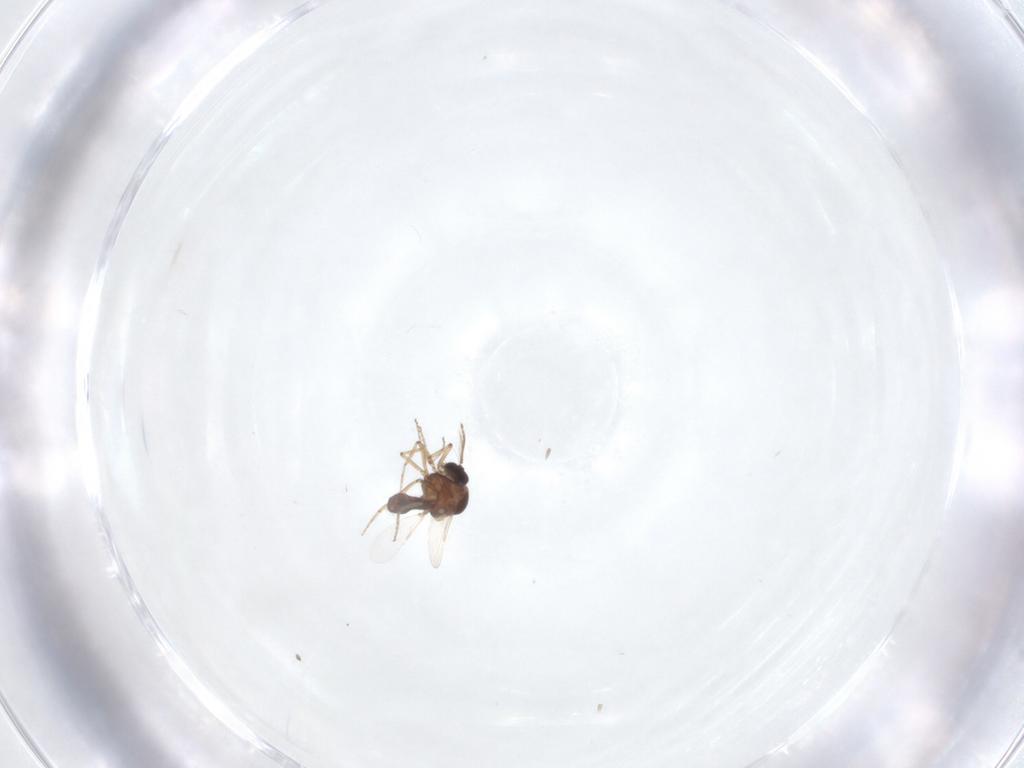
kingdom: Animalia
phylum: Arthropoda
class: Insecta
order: Diptera
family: Ceratopogonidae
